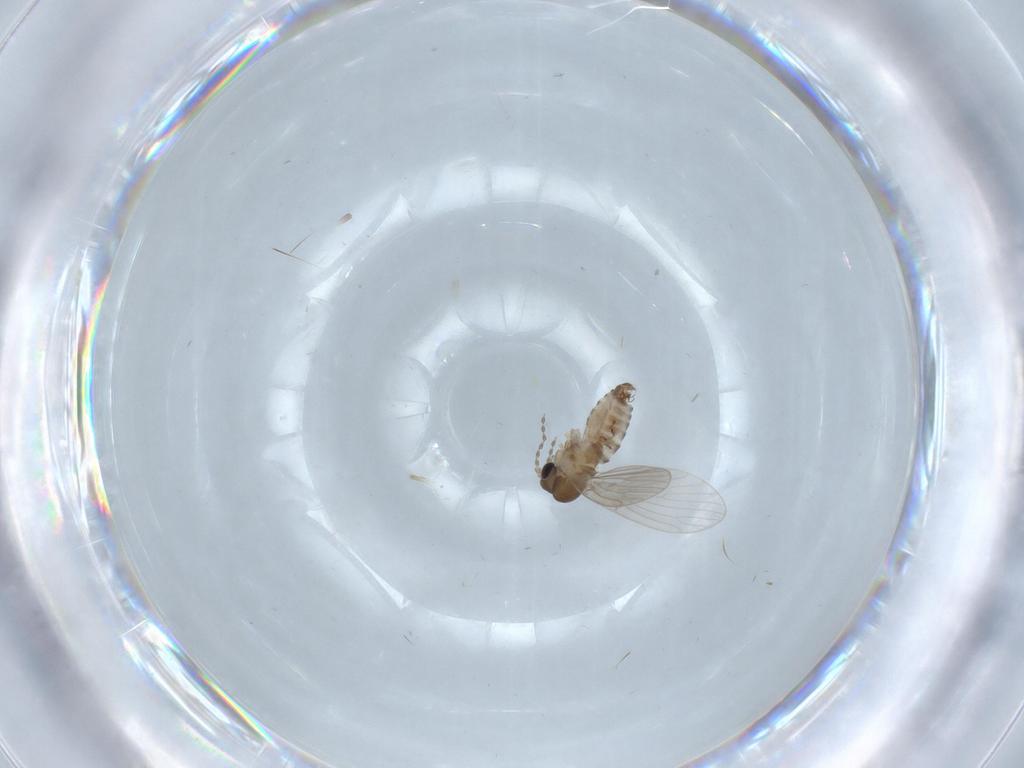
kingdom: Animalia
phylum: Arthropoda
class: Insecta
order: Diptera
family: Psychodidae
